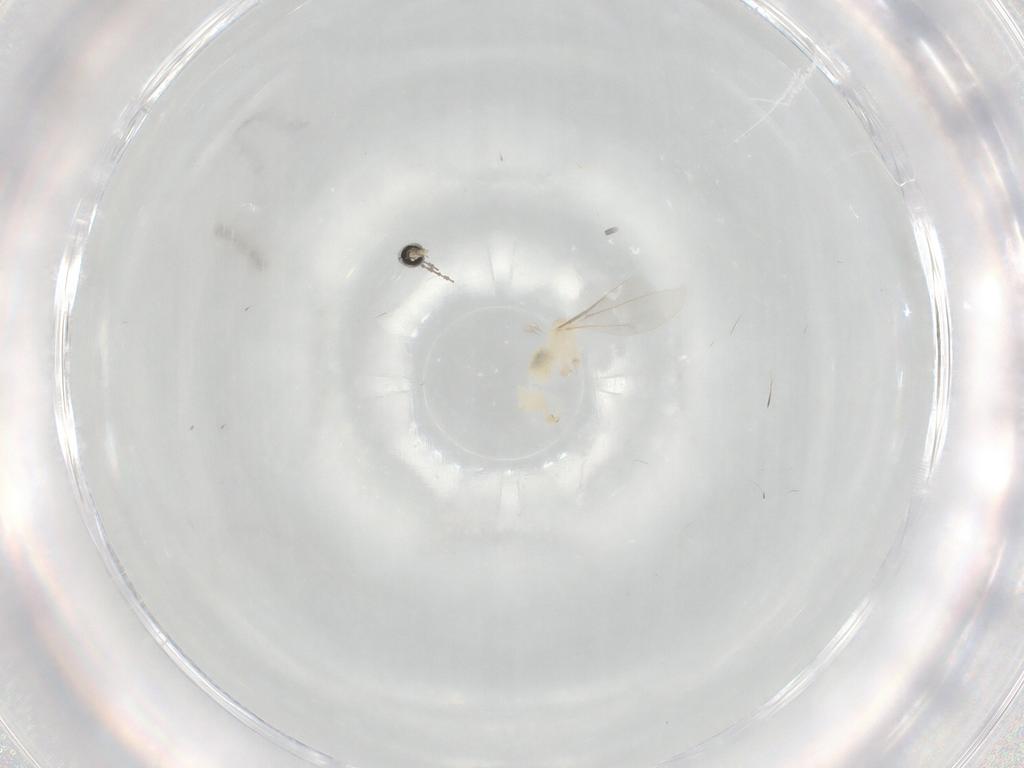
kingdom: Animalia
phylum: Arthropoda
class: Insecta
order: Diptera
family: Cecidomyiidae
